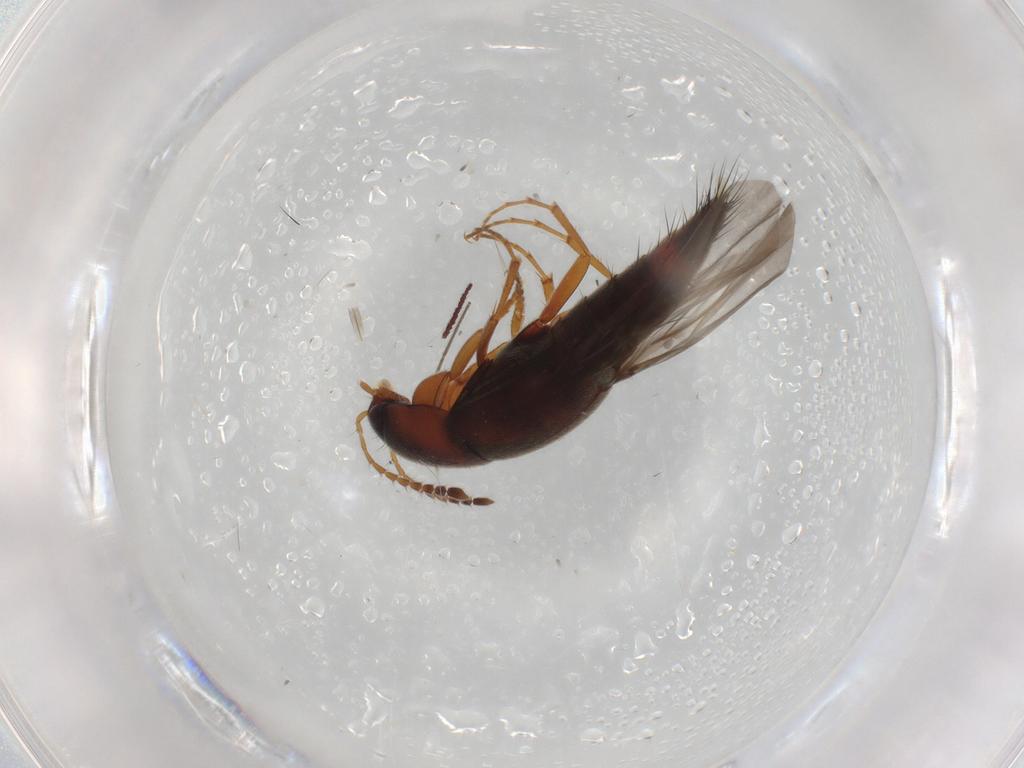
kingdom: Animalia
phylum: Arthropoda
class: Insecta
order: Coleoptera
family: Staphylinidae
